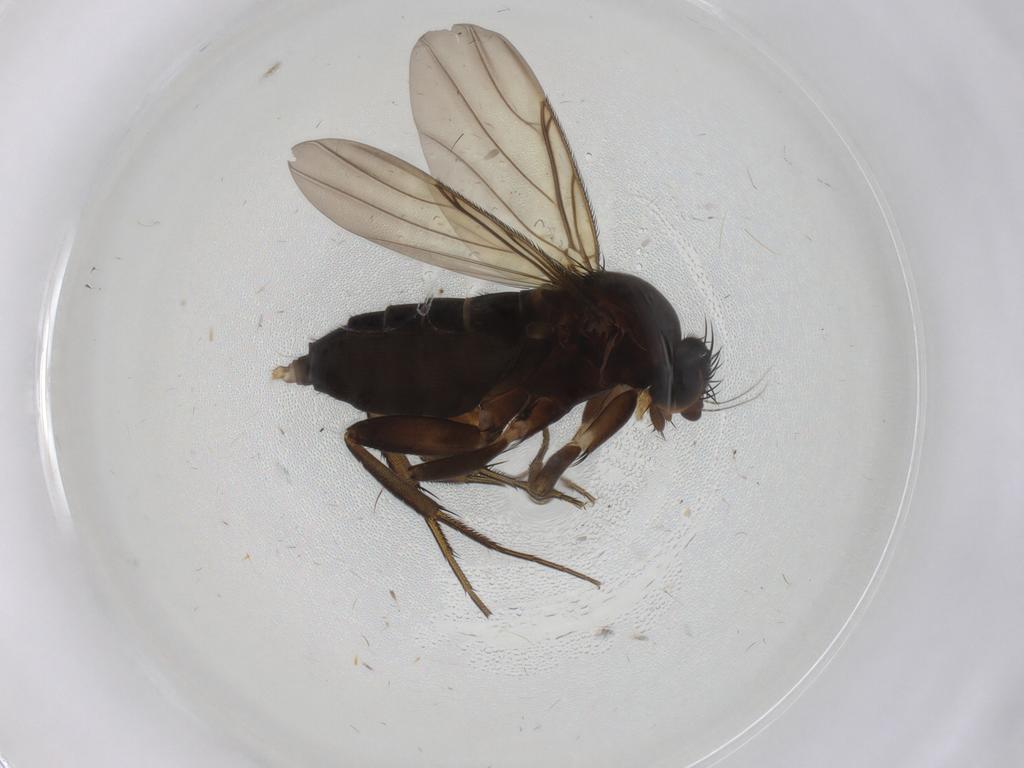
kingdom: Animalia
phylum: Arthropoda
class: Insecta
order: Diptera
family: Phoridae
